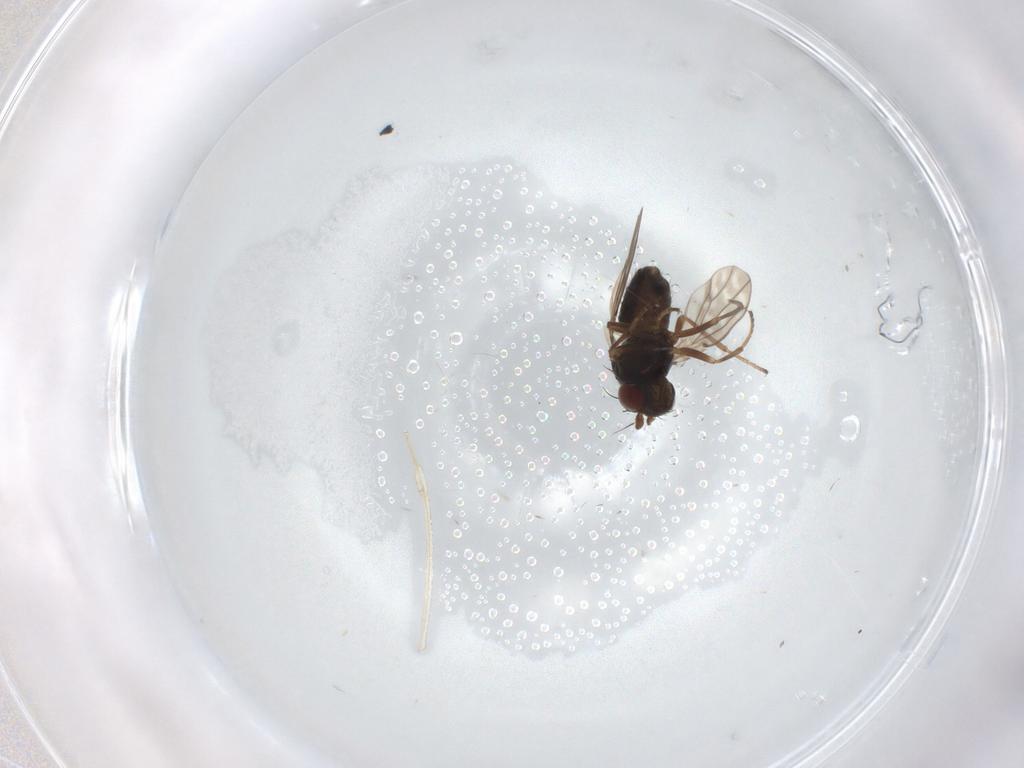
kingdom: Animalia
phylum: Arthropoda
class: Insecta
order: Diptera
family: Ephydridae
